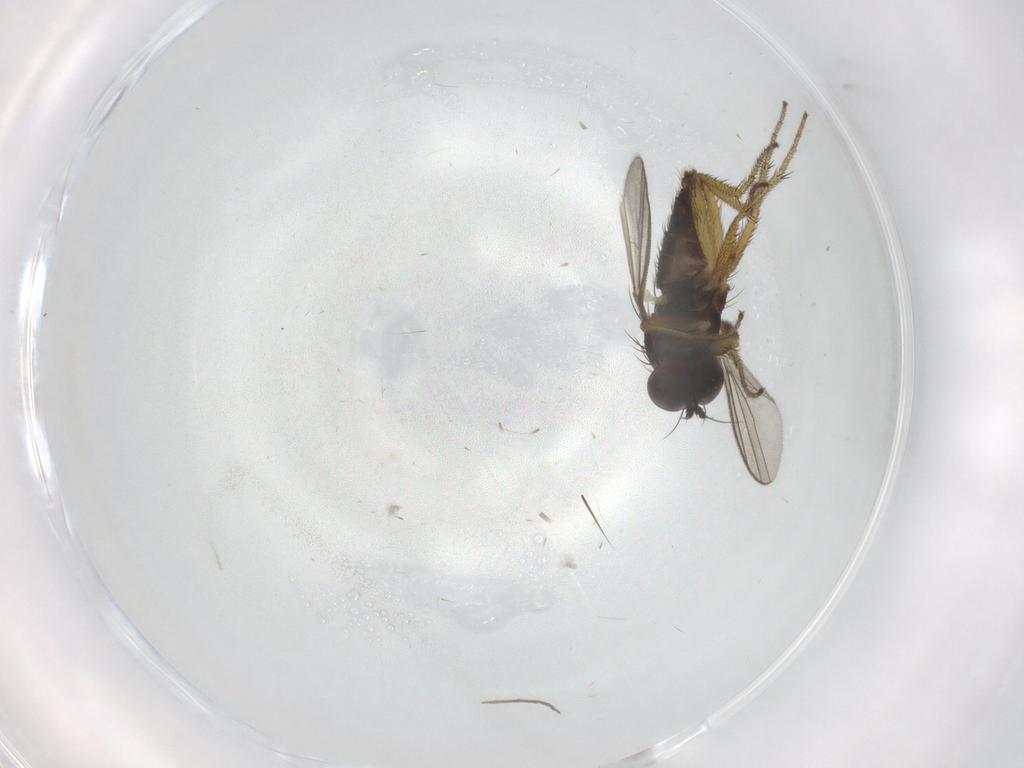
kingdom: Animalia
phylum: Arthropoda
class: Insecta
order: Diptera
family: Chironomidae
